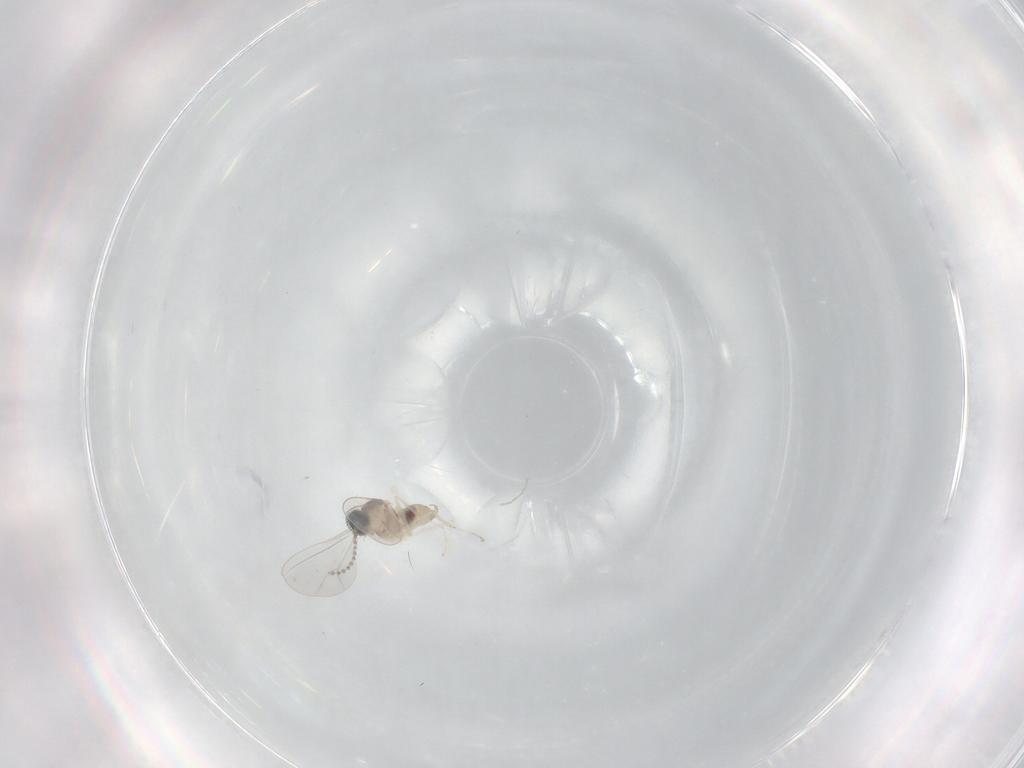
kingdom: Animalia
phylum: Arthropoda
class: Insecta
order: Diptera
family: Cecidomyiidae
